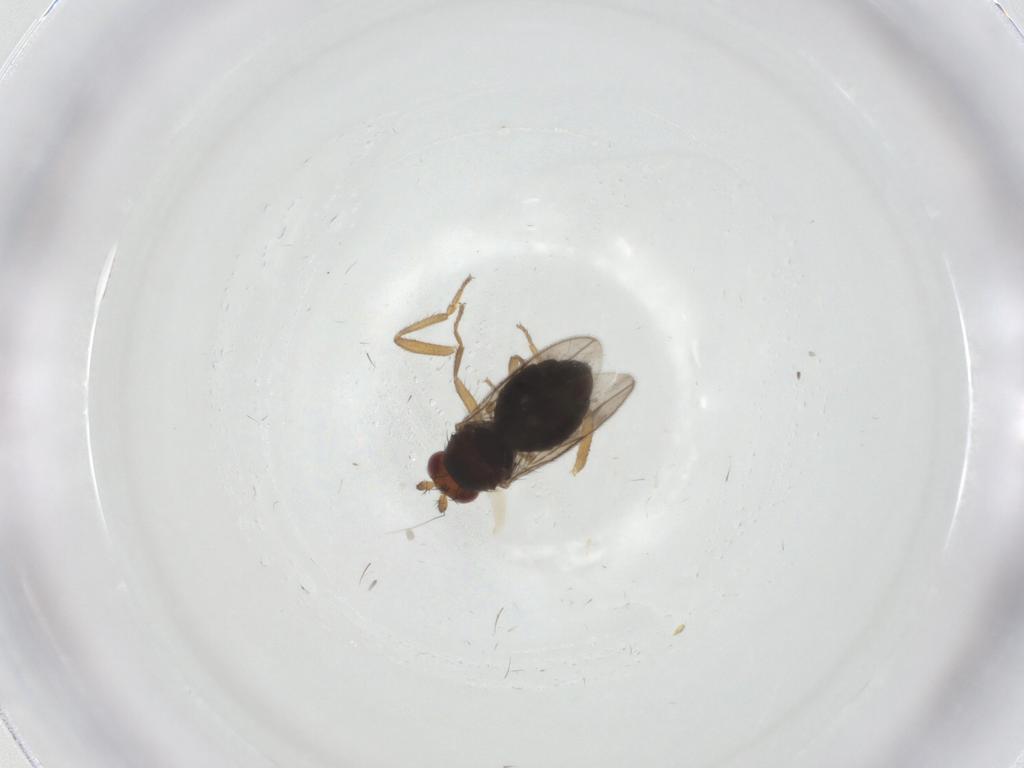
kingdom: Animalia
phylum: Arthropoda
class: Insecta
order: Diptera
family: Sphaeroceridae
